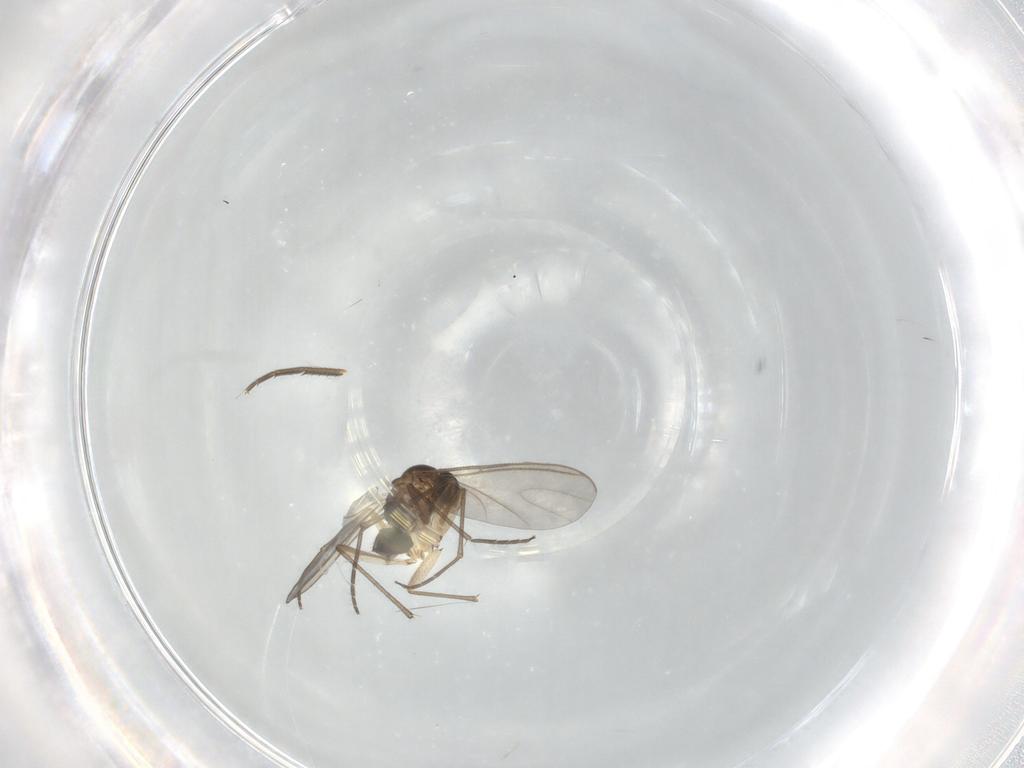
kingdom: Animalia
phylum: Arthropoda
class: Insecta
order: Diptera
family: Sciaridae
